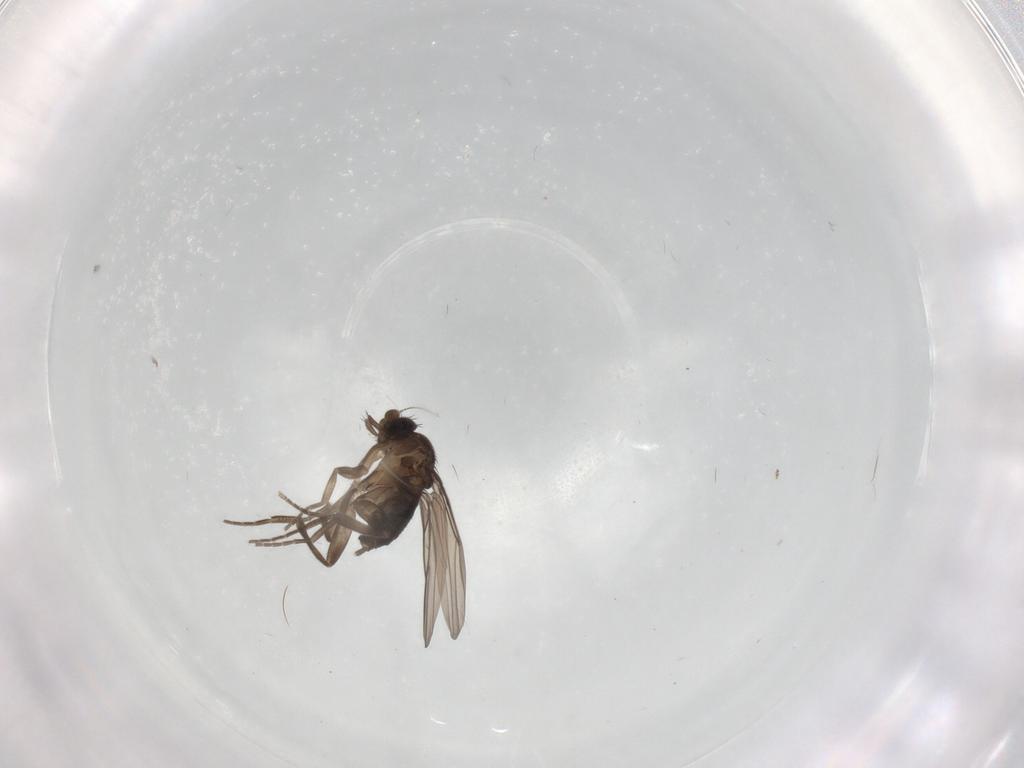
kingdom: Animalia
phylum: Arthropoda
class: Insecta
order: Diptera
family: Phoridae
